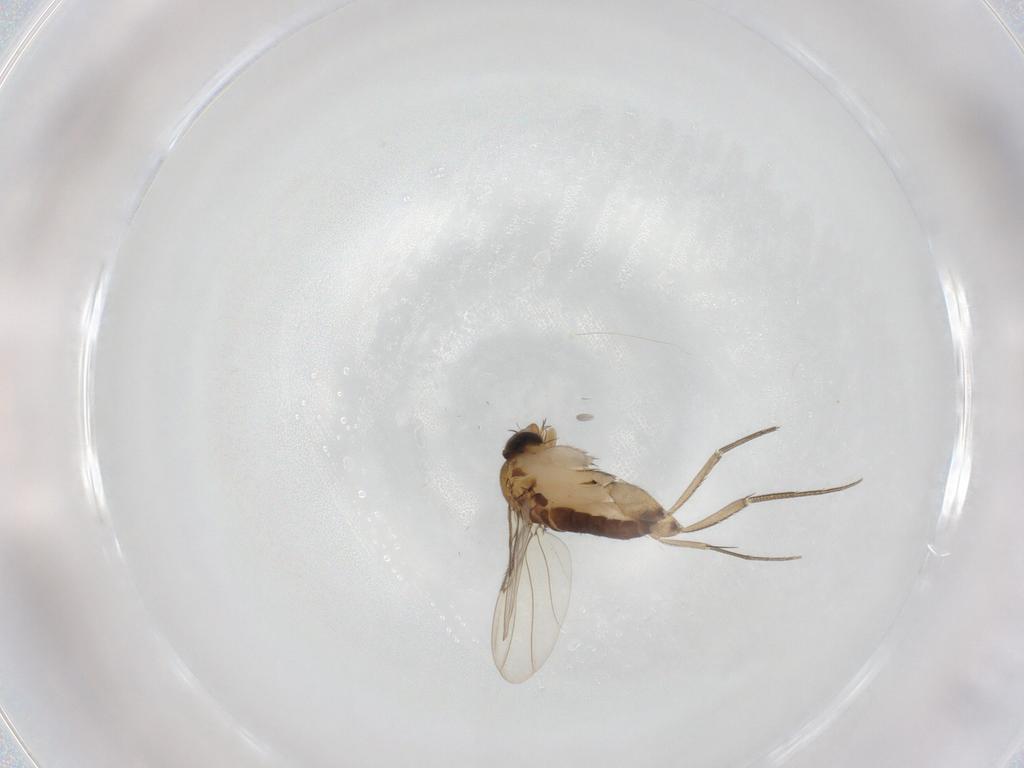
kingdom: Animalia
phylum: Arthropoda
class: Insecta
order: Diptera
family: Phoridae
